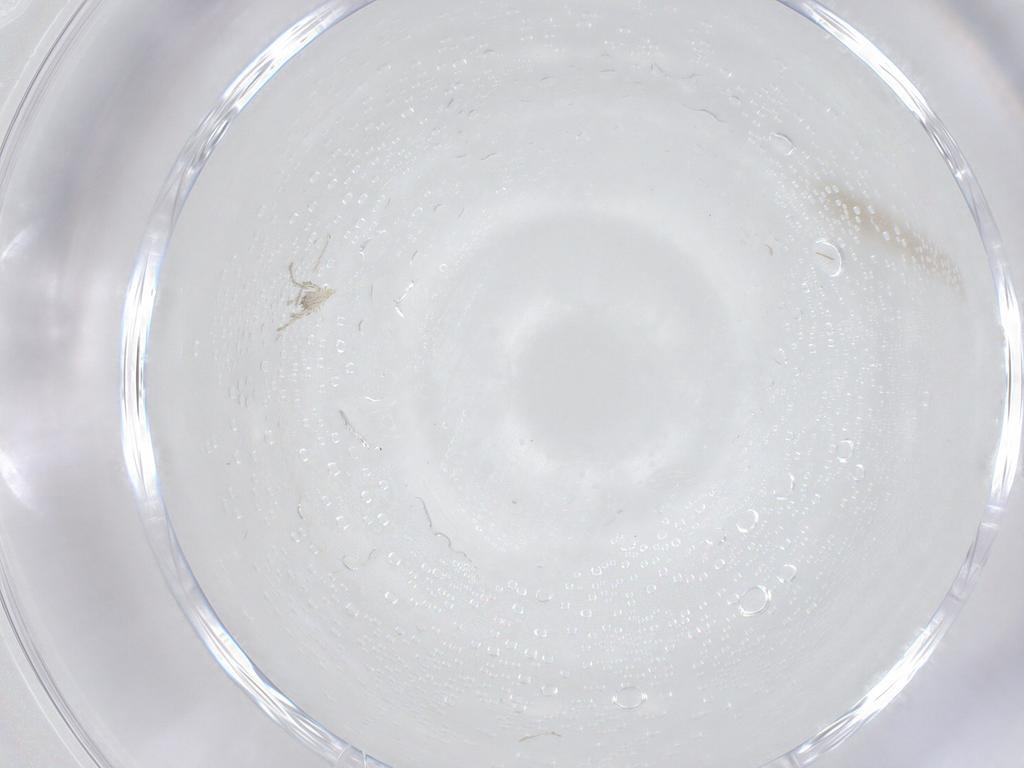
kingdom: Animalia
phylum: Arthropoda
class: Arachnida
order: Trombidiformes
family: Erythraeidae
